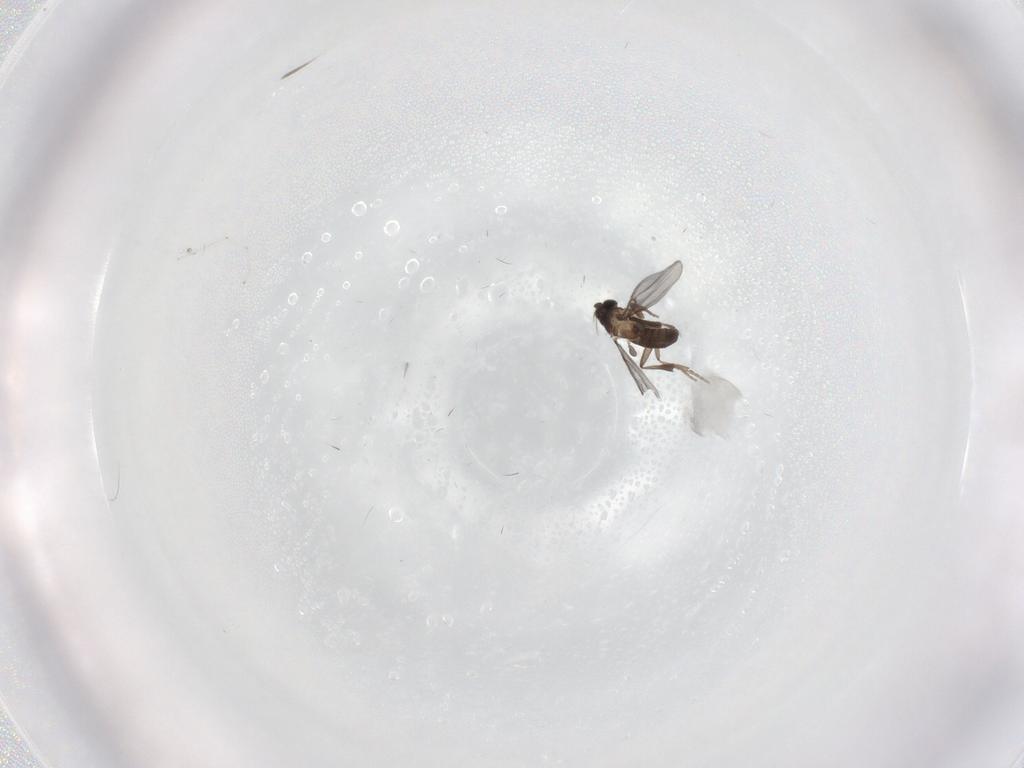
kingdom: Animalia
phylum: Arthropoda
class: Insecta
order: Diptera
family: Phoridae
